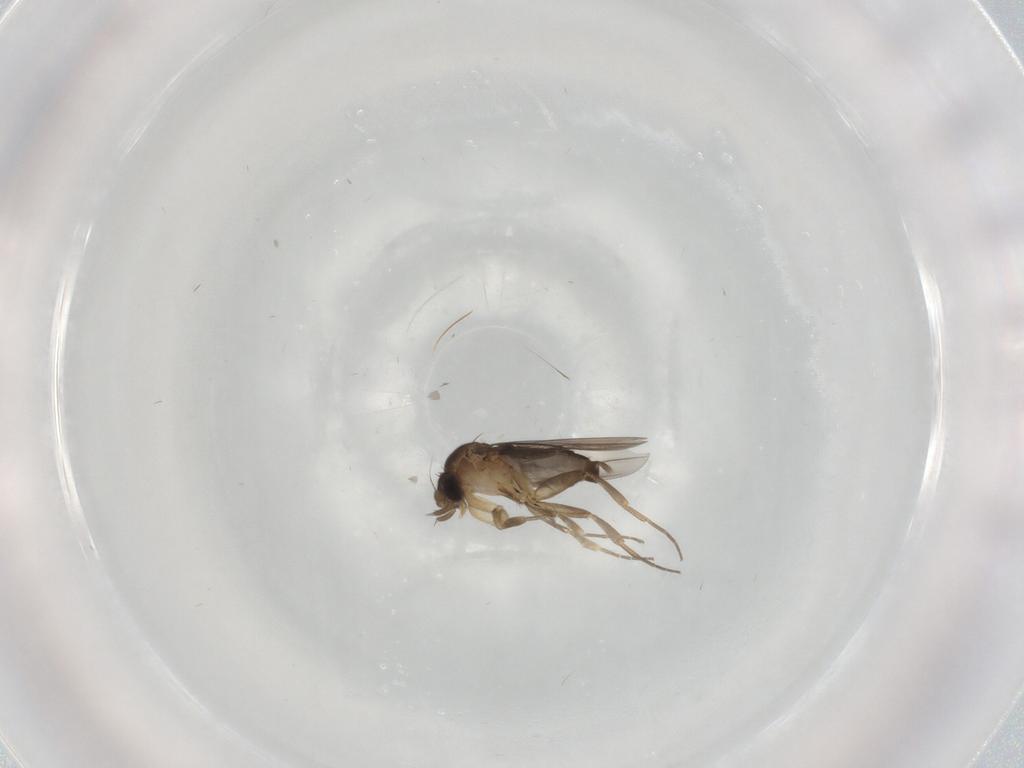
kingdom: Animalia
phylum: Arthropoda
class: Insecta
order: Diptera
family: Phoridae
